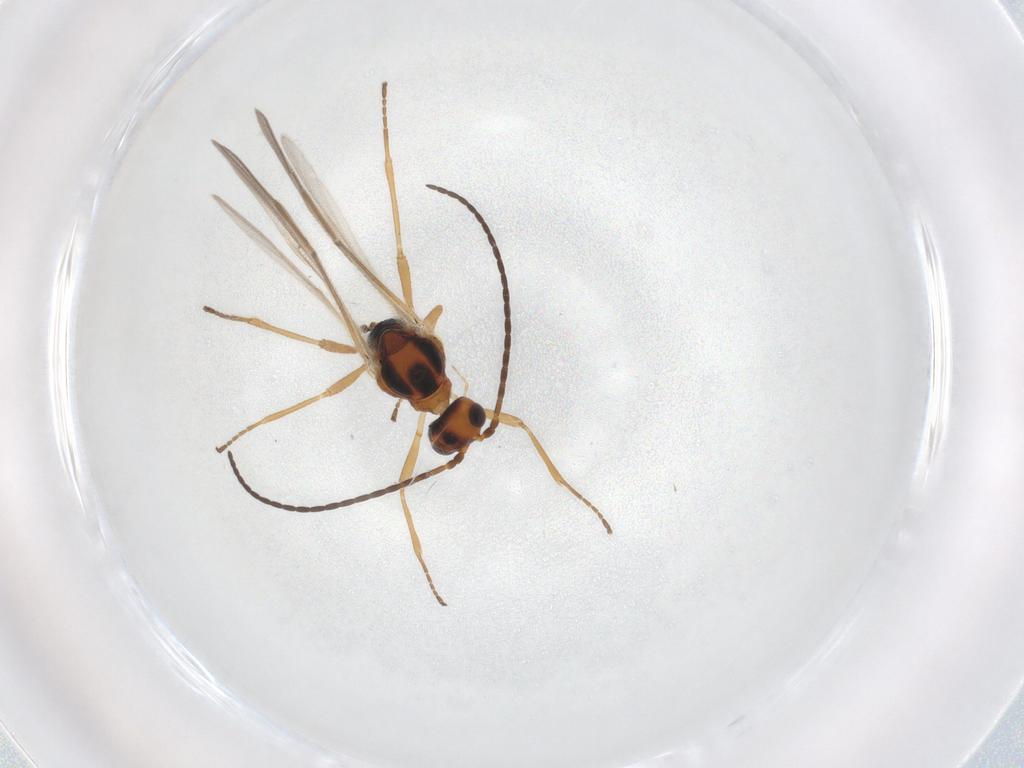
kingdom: Animalia
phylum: Arthropoda
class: Insecta
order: Hymenoptera
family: Braconidae
